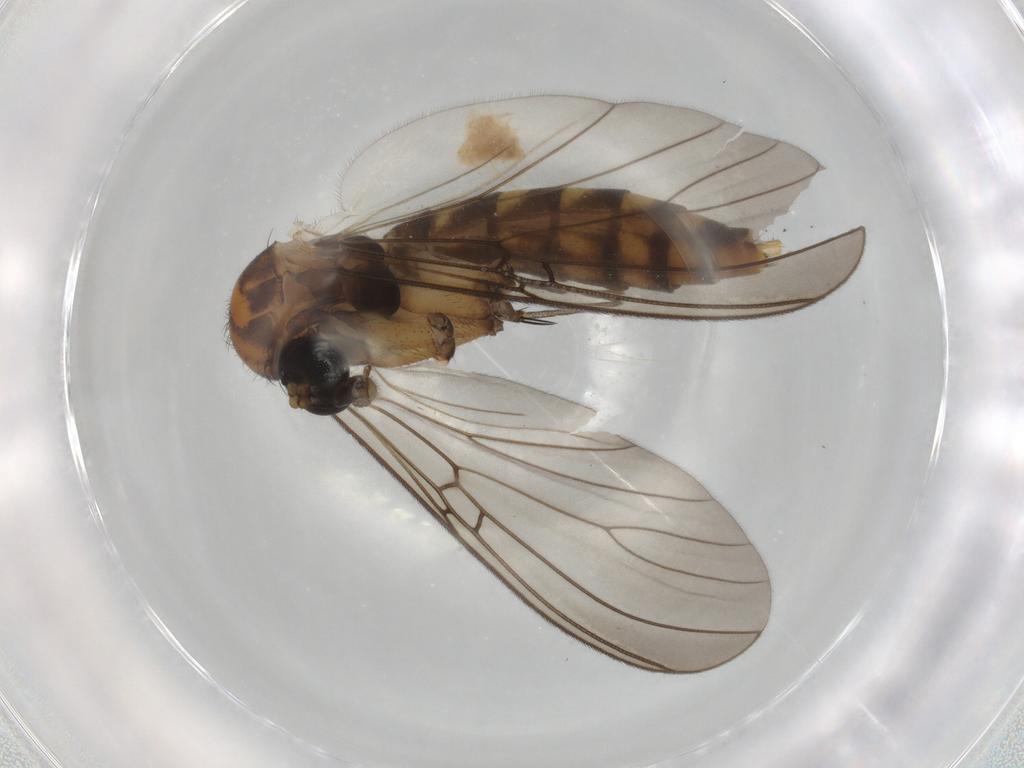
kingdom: Animalia
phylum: Arthropoda
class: Insecta
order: Diptera
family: Mycetophilidae
